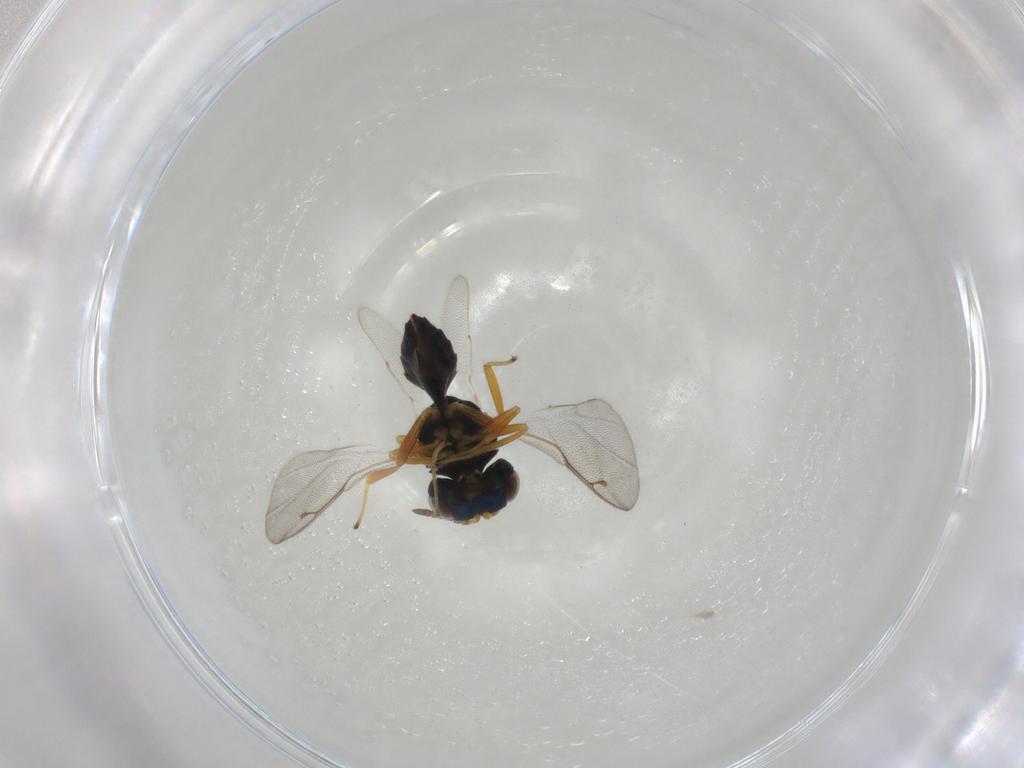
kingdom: Animalia
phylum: Arthropoda
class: Insecta
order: Hymenoptera
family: Pteromalidae
